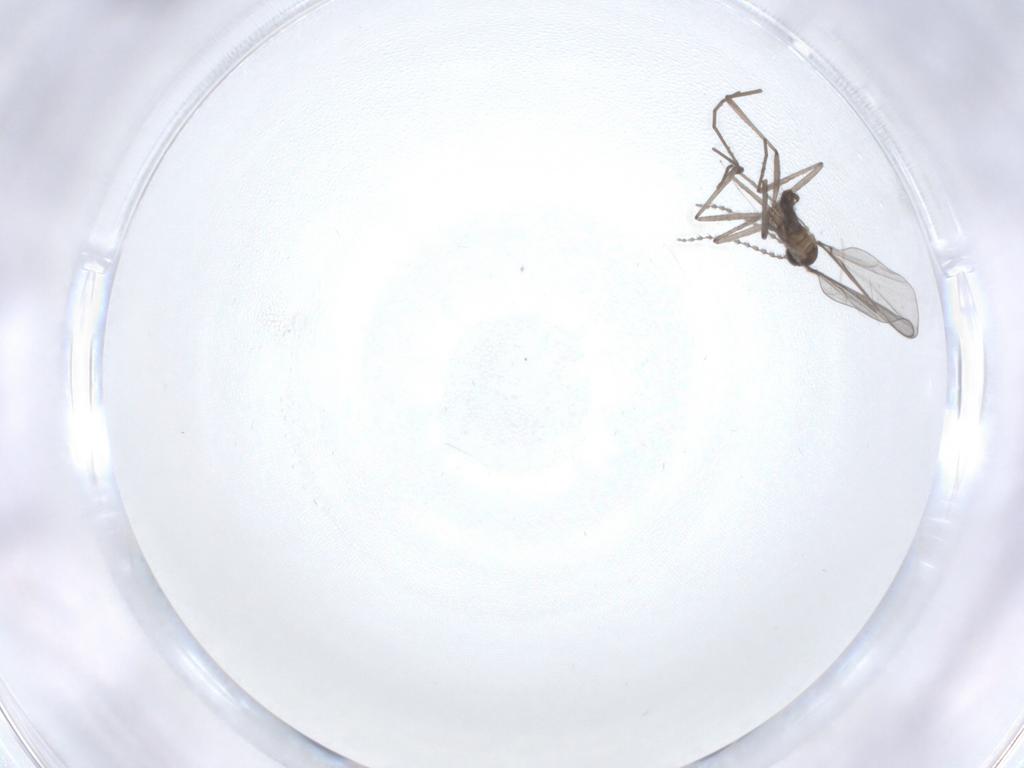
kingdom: Animalia
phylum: Arthropoda
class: Insecta
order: Diptera
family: Cecidomyiidae
